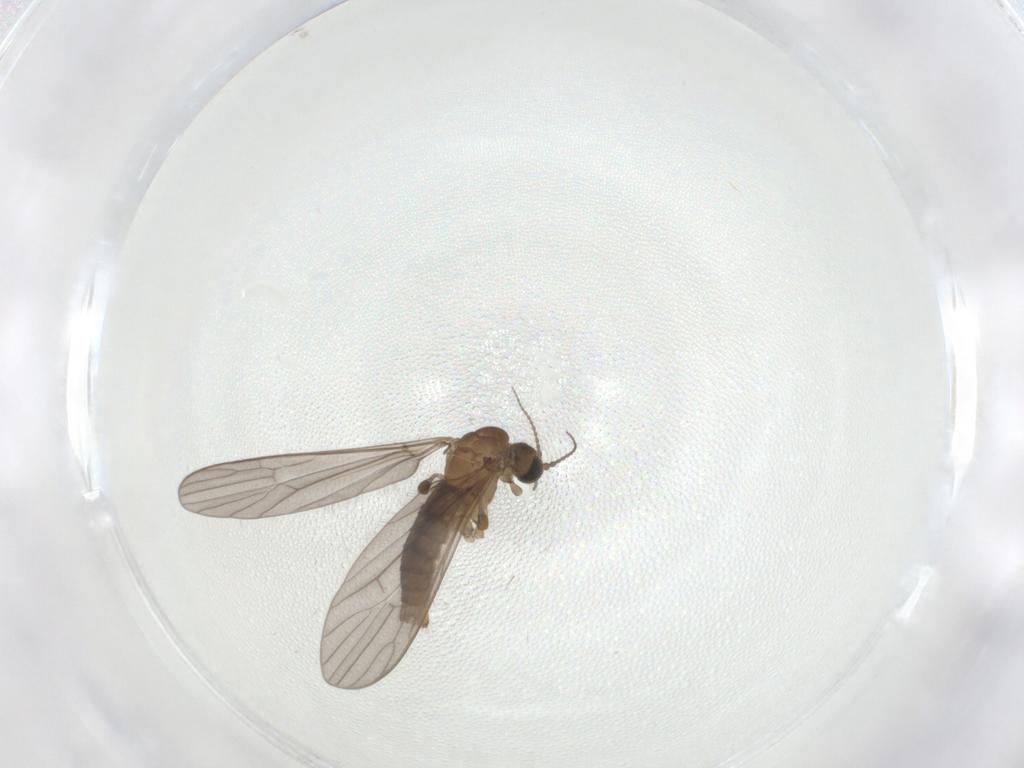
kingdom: Animalia
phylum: Arthropoda
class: Insecta
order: Diptera
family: Limoniidae
